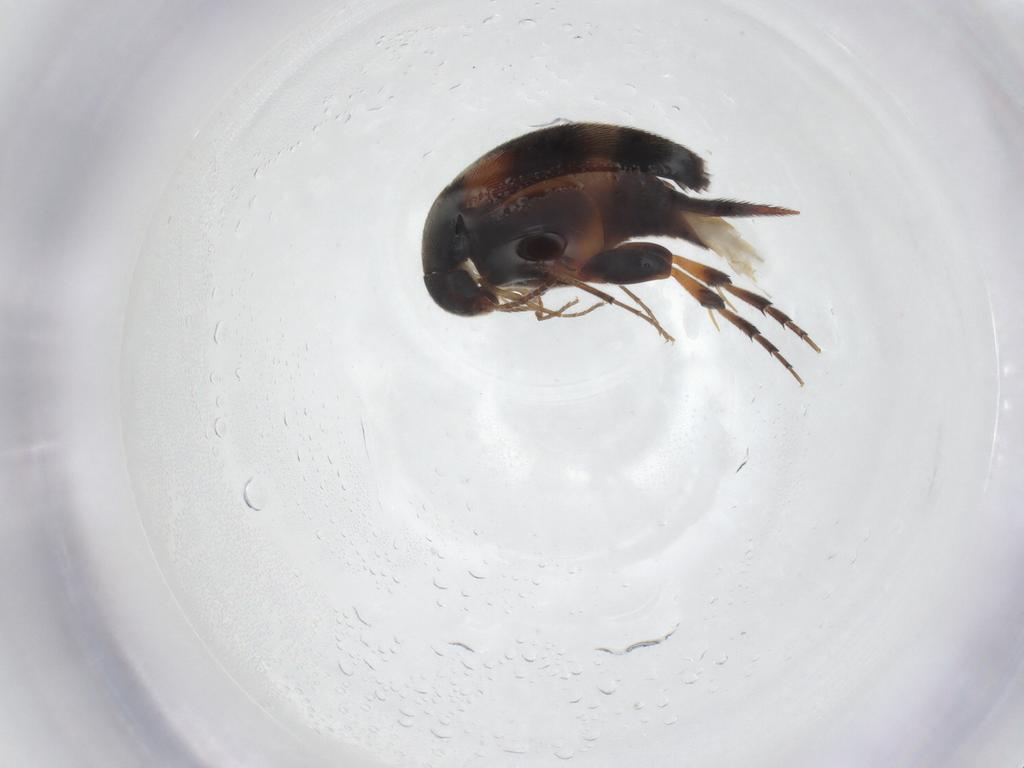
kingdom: Animalia
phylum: Arthropoda
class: Insecta
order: Coleoptera
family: Mordellidae
